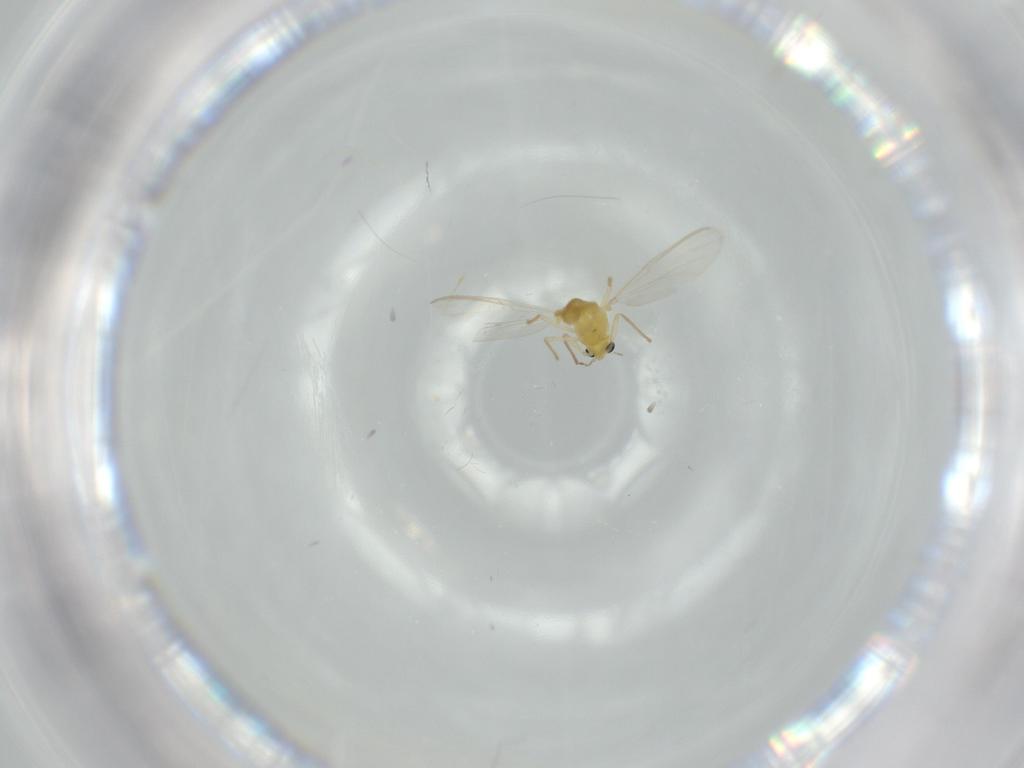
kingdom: Animalia
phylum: Arthropoda
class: Insecta
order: Diptera
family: Chironomidae
